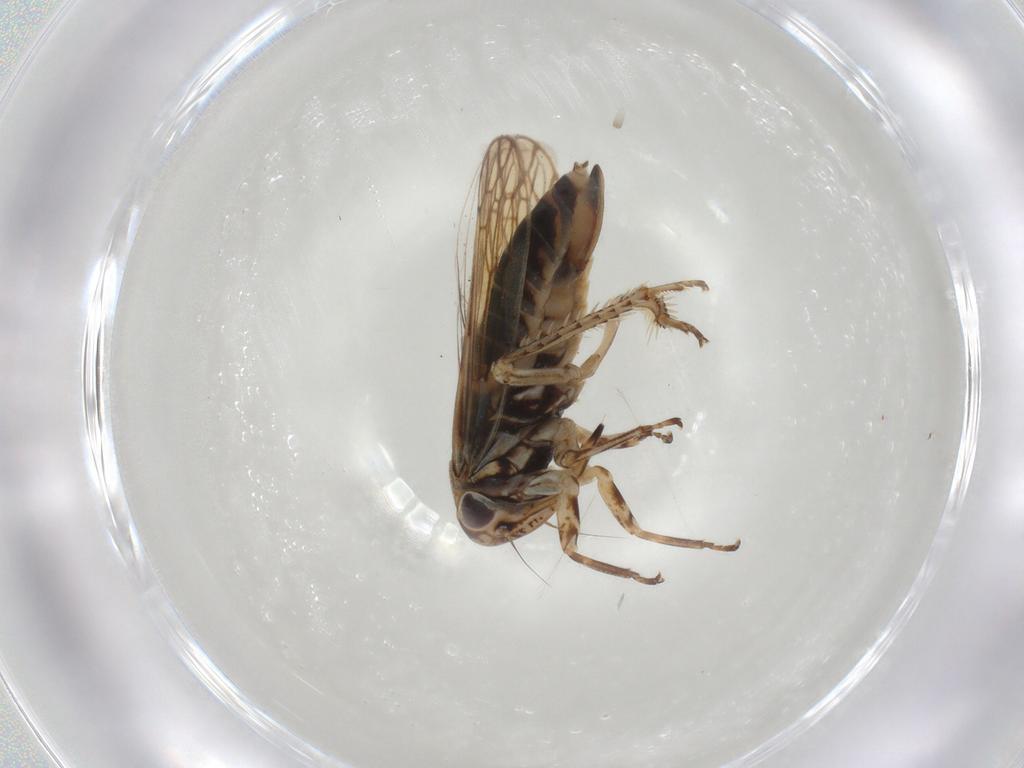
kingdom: Animalia
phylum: Arthropoda
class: Insecta
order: Hemiptera
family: Cicadellidae
